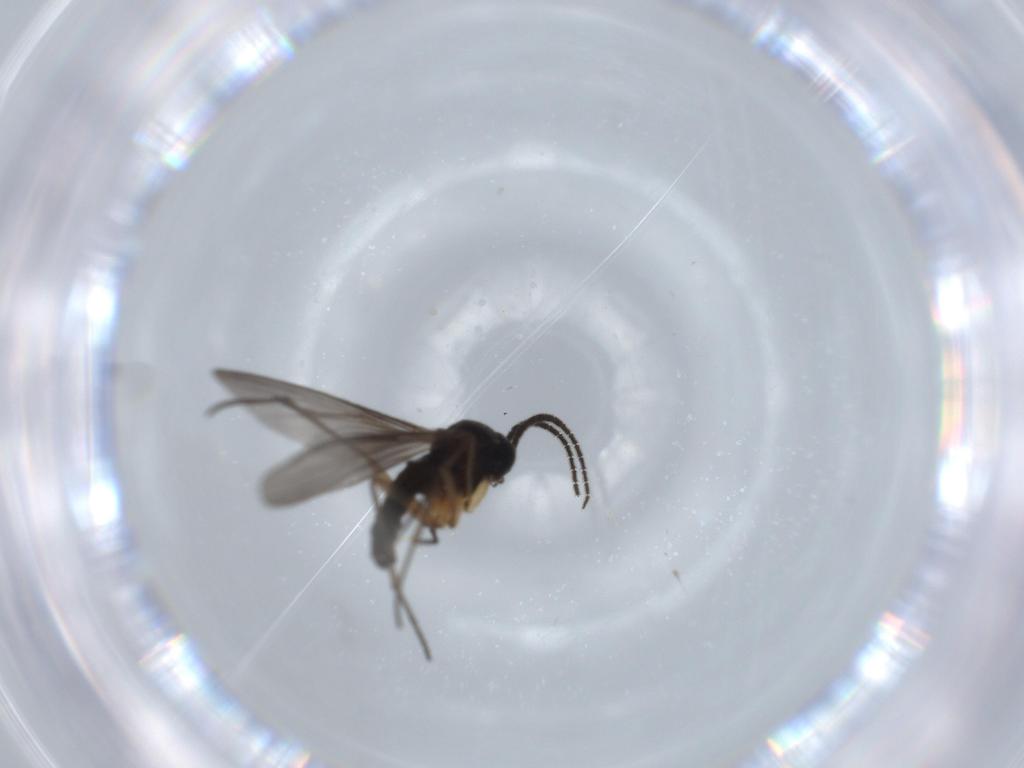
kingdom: Animalia
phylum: Arthropoda
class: Insecta
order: Diptera
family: Sciaridae
